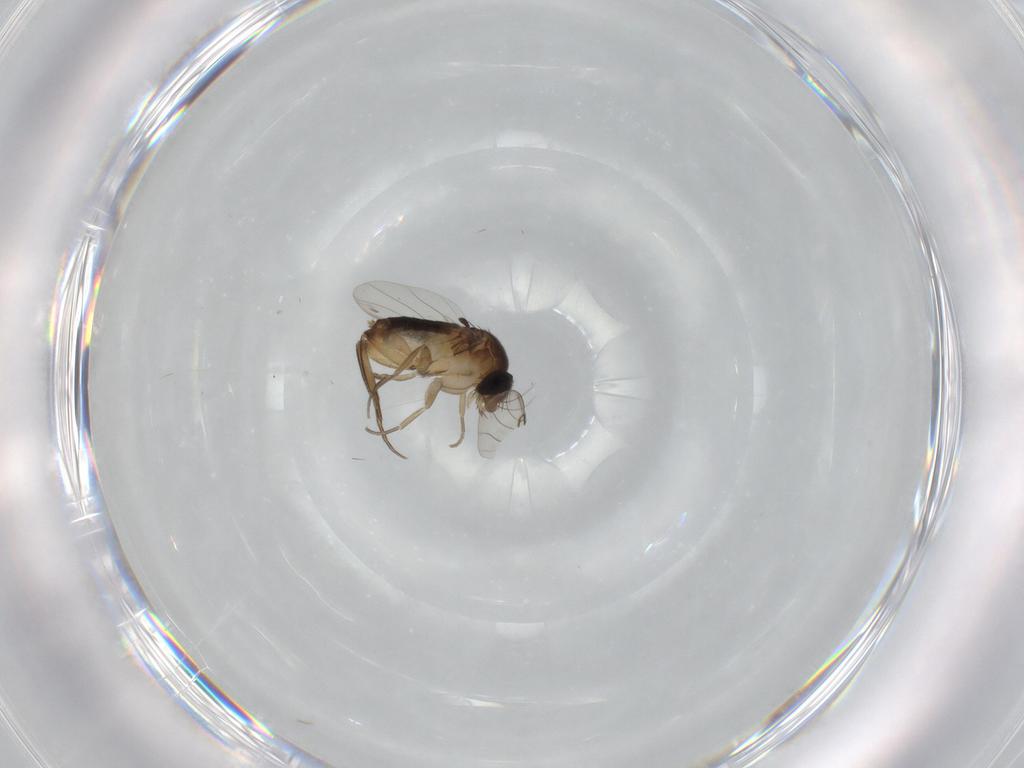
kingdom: Animalia
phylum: Arthropoda
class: Insecta
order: Diptera
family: Phoridae
